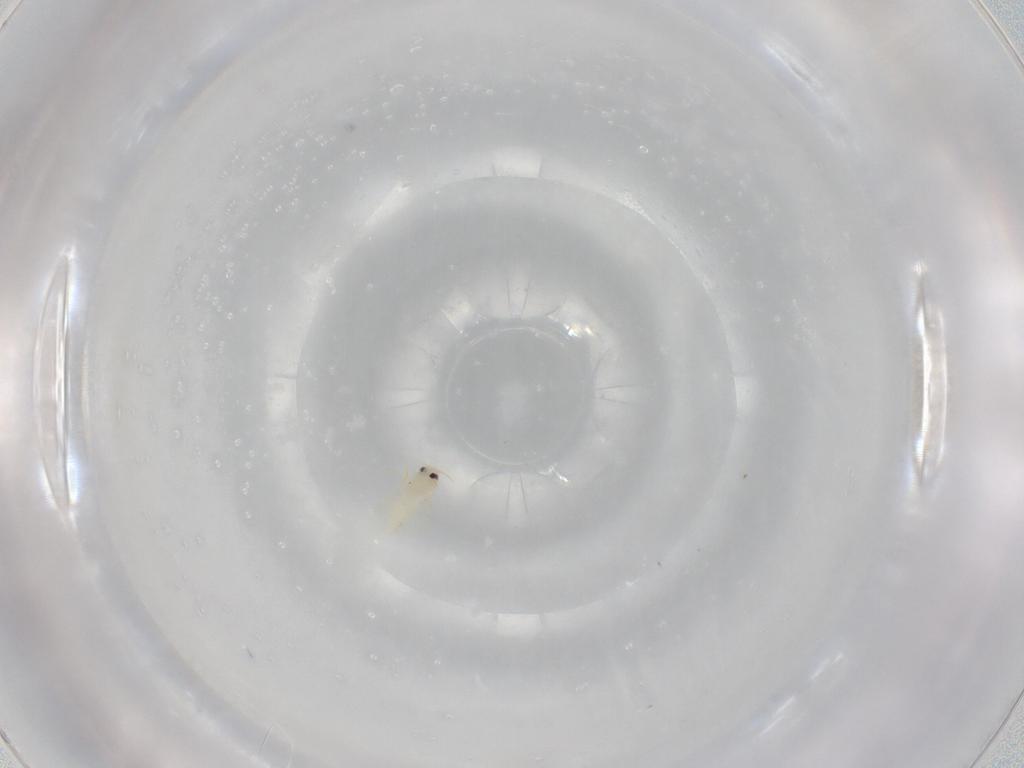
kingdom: Animalia
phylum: Arthropoda
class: Insecta
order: Hemiptera
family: Aleyrodidae
